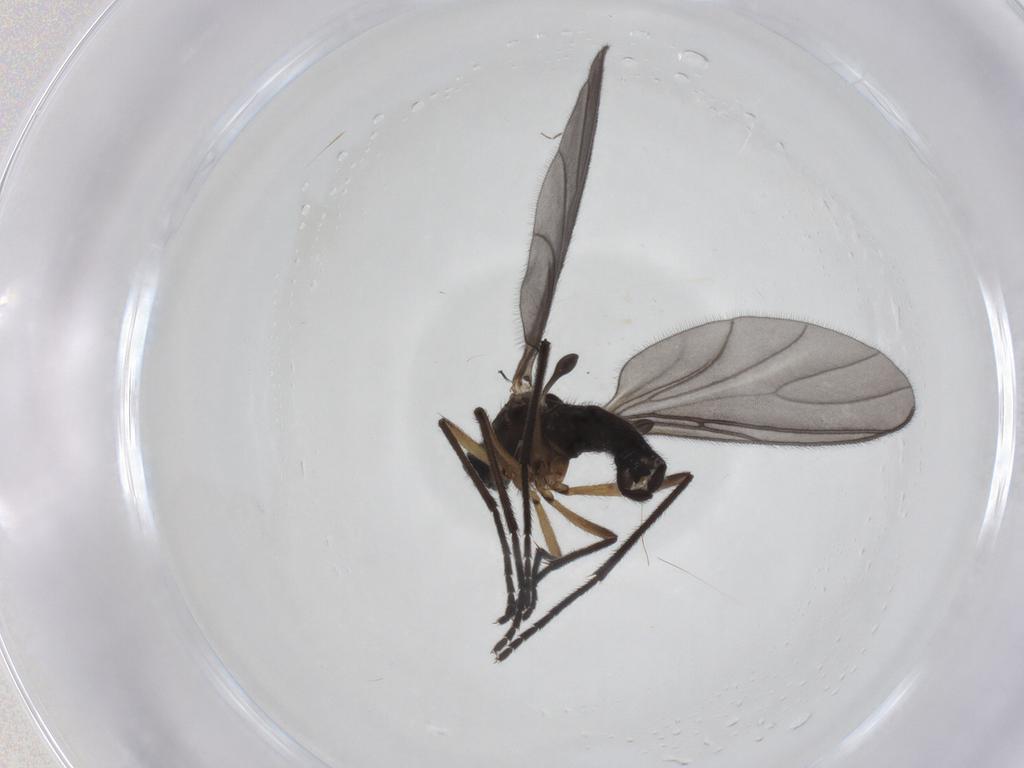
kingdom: Animalia
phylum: Arthropoda
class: Insecta
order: Diptera
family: Sciaridae
